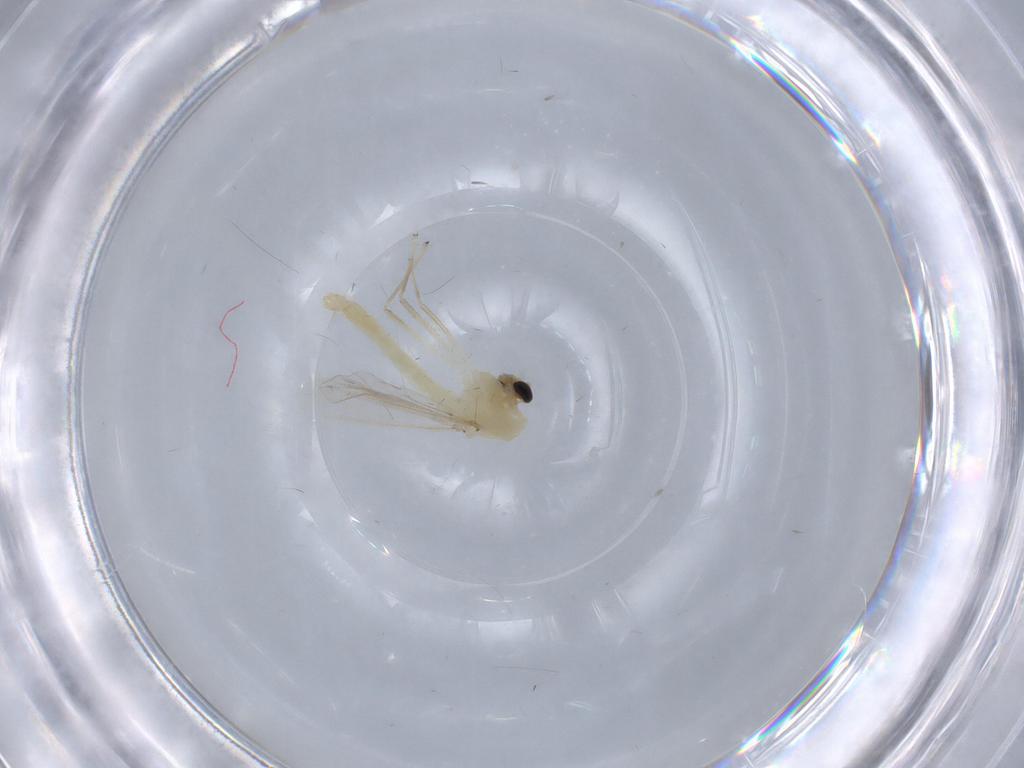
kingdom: Animalia
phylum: Arthropoda
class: Insecta
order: Diptera
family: Chironomidae
